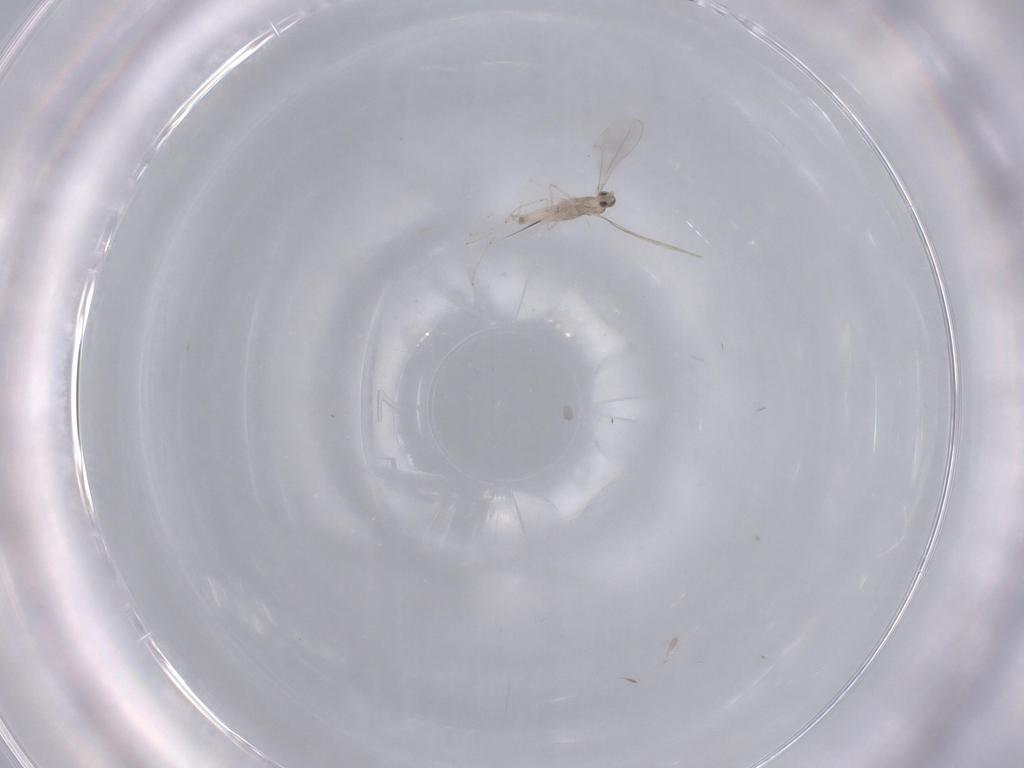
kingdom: Animalia
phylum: Arthropoda
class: Insecta
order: Diptera
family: Cecidomyiidae
